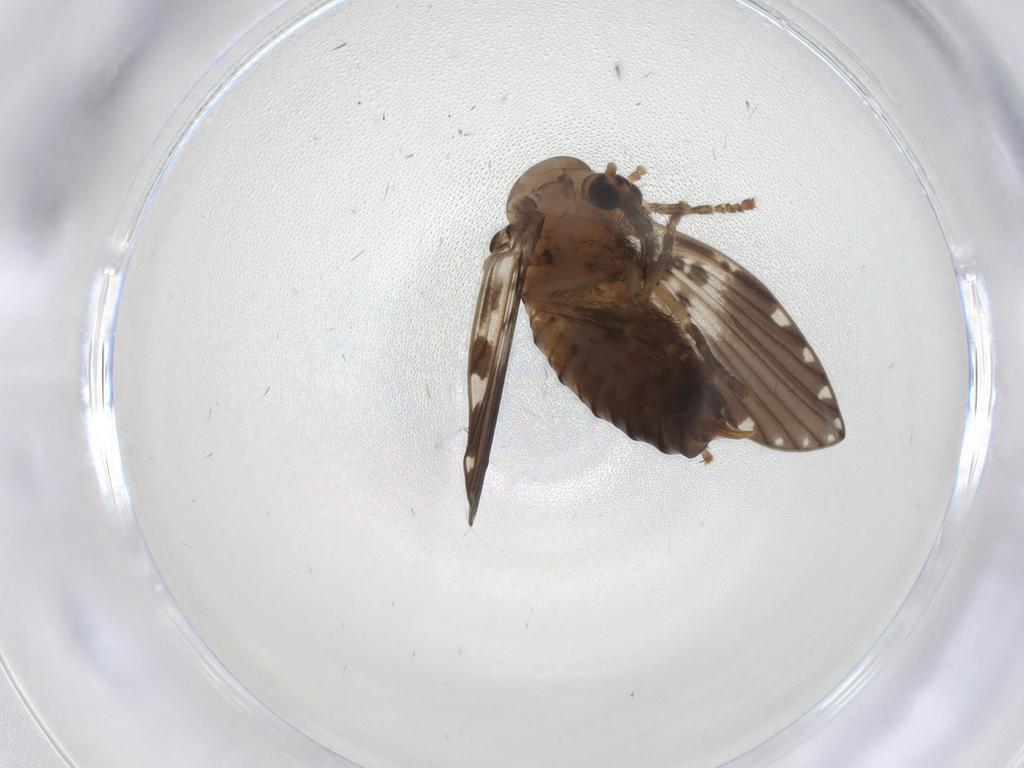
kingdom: Animalia
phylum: Arthropoda
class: Insecta
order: Diptera
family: Psychodidae
